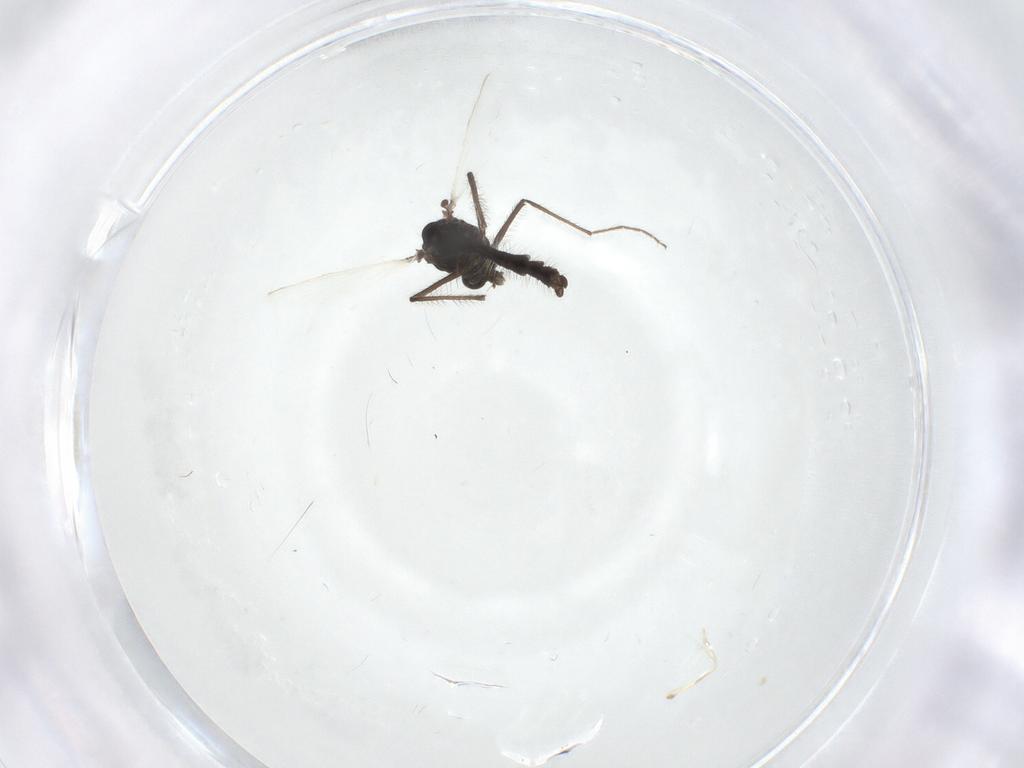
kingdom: Animalia
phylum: Arthropoda
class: Insecta
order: Diptera
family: Chironomidae
